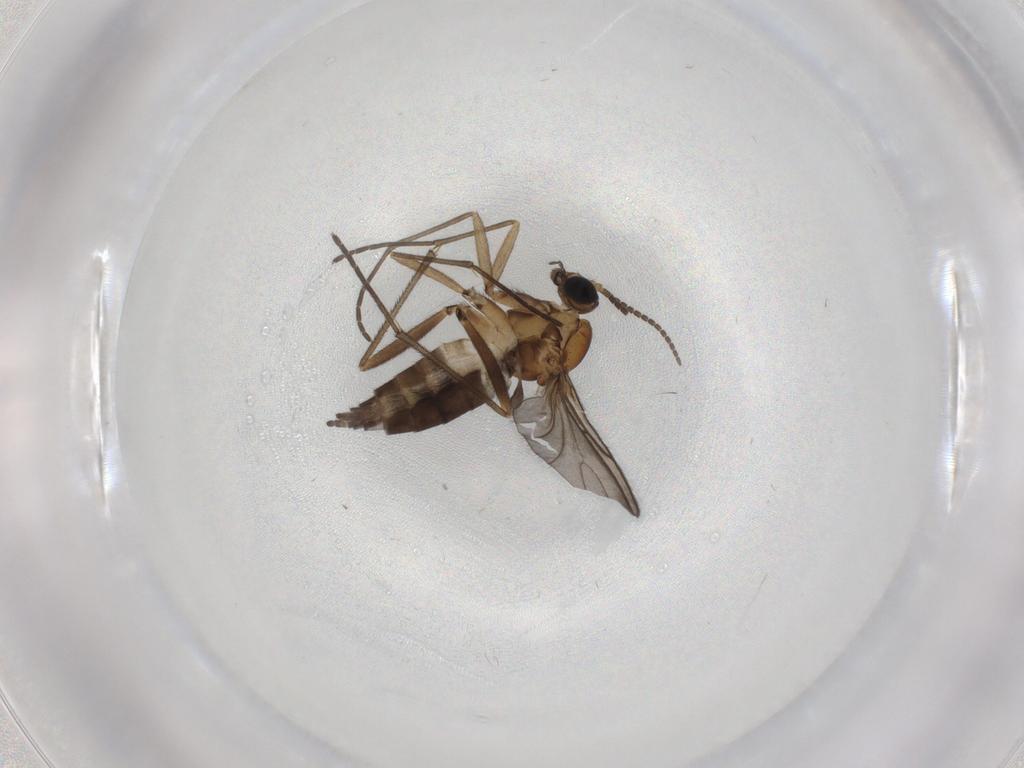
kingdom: Animalia
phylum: Arthropoda
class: Insecta
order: Diptera
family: Sciaridae
